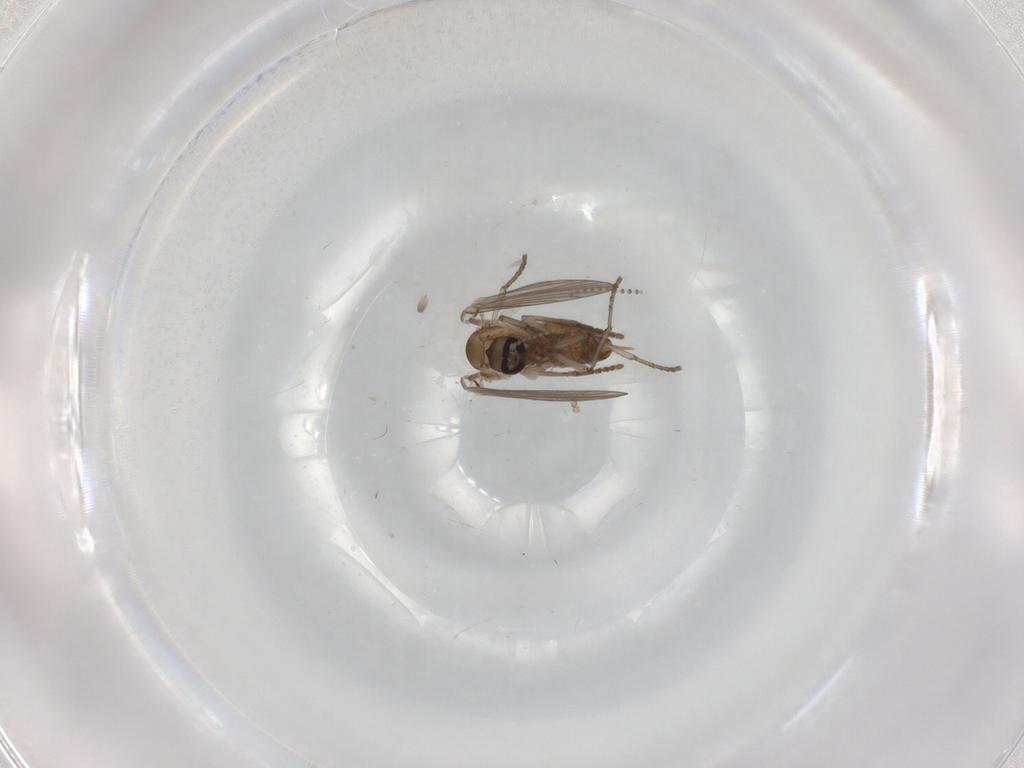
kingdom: Animalia
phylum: Arthropoda
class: Insecta
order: Diptera
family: Psychodidae
